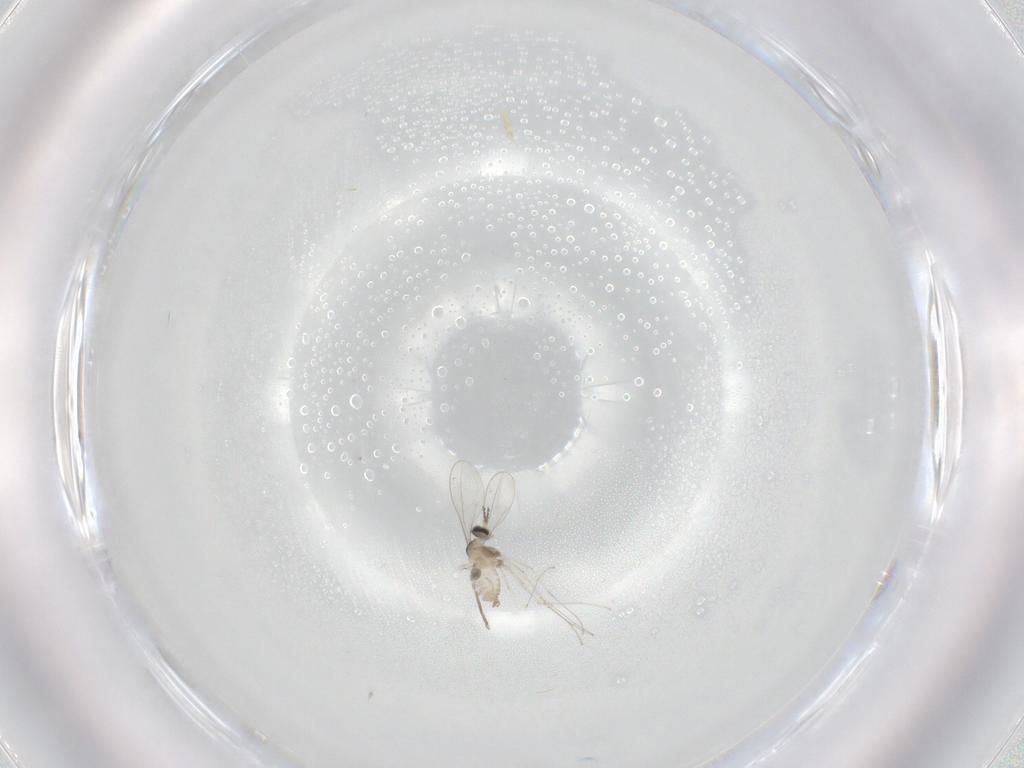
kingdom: Animalia
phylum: Arthropoda
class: Insecta
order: Diptera
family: Cecidomyiidae
